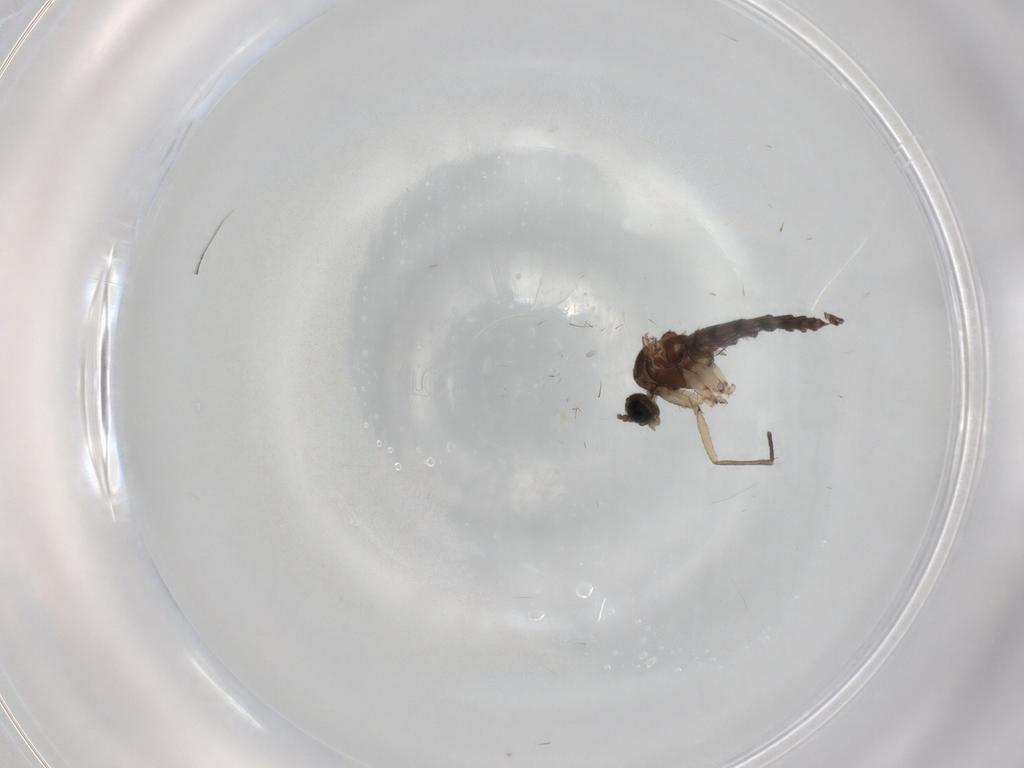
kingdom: Animalia
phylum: Arthropoda
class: Insecta
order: Diptera
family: Sciaridae
